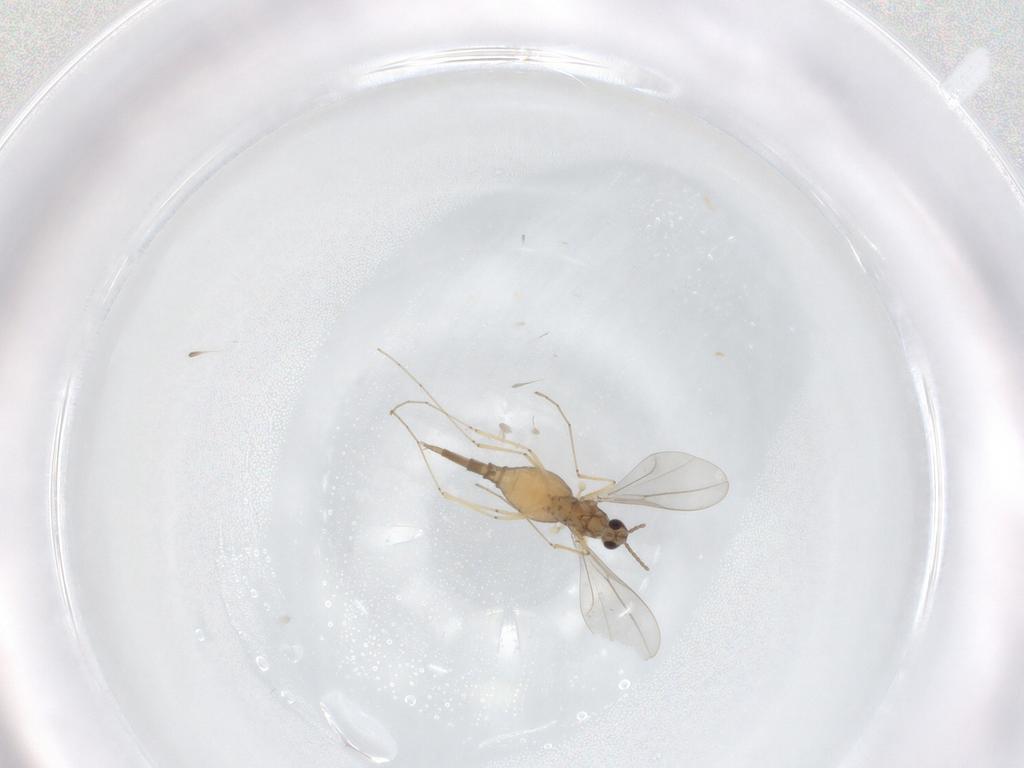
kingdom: Animalia
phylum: Arthropoda
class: Insecta
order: Diptera
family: Cecidomyiidae
